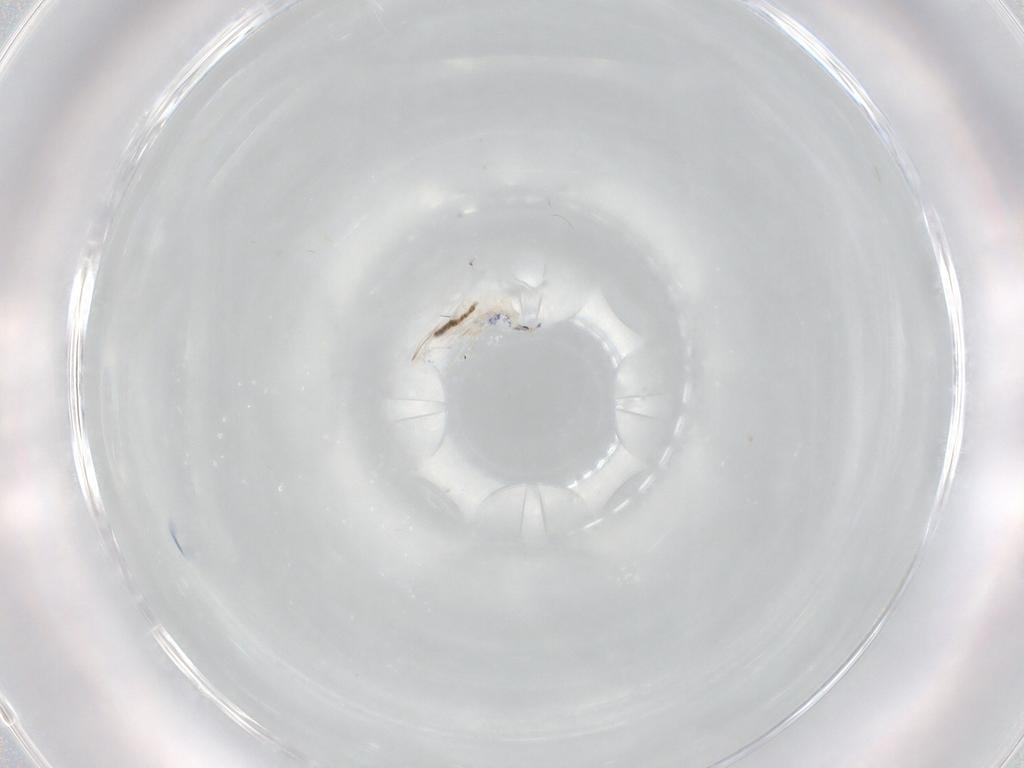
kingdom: Animalia
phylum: Arthropoda
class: Collembola
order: Entomobryomorpha
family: Entomobryidae
